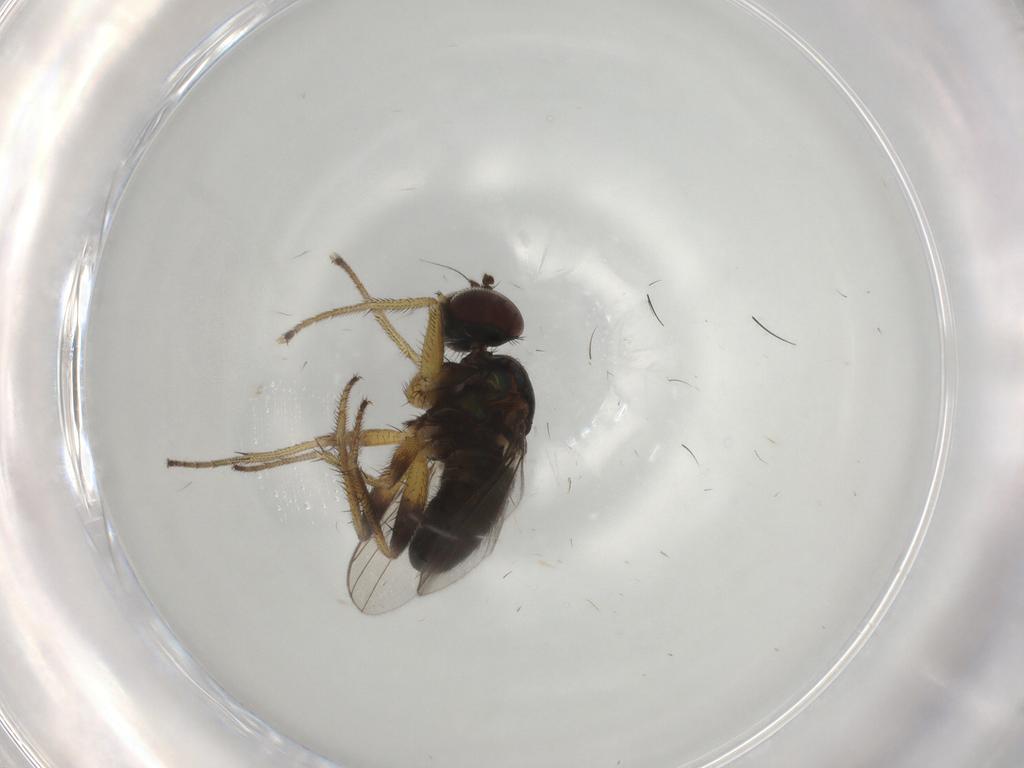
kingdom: Animalia
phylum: Arthropoda
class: Insecta
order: Diptera
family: Dolichopodidae
